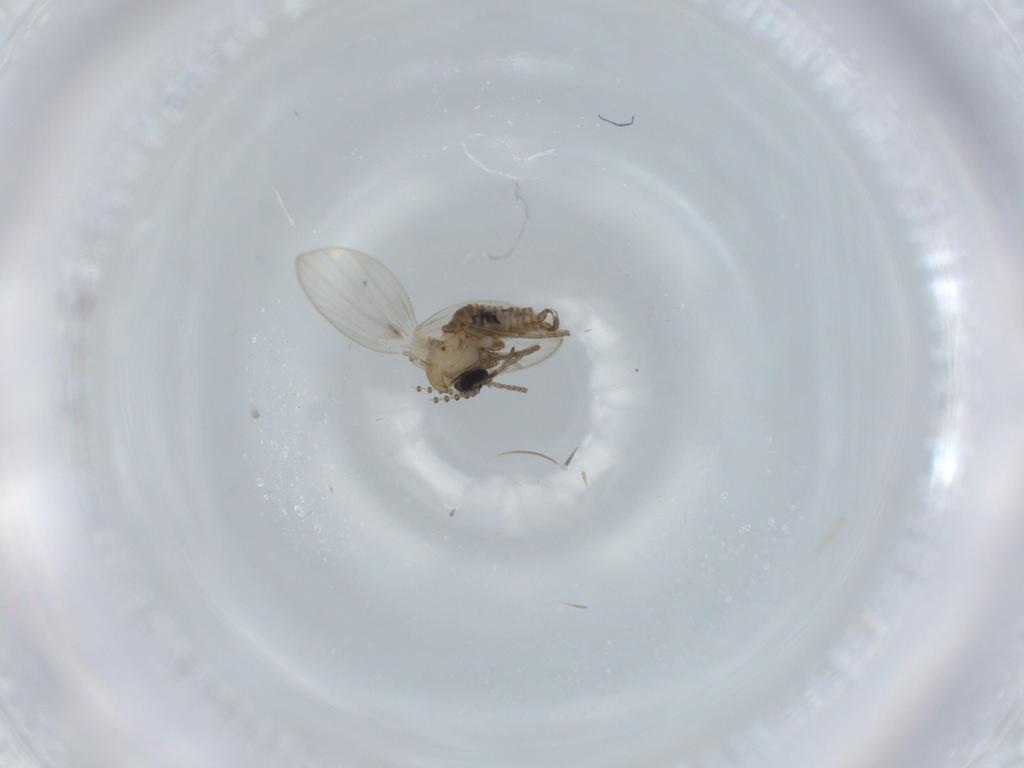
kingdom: Animalia
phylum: Arthropoda
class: Insecta
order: Diptera
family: Psychodidae
